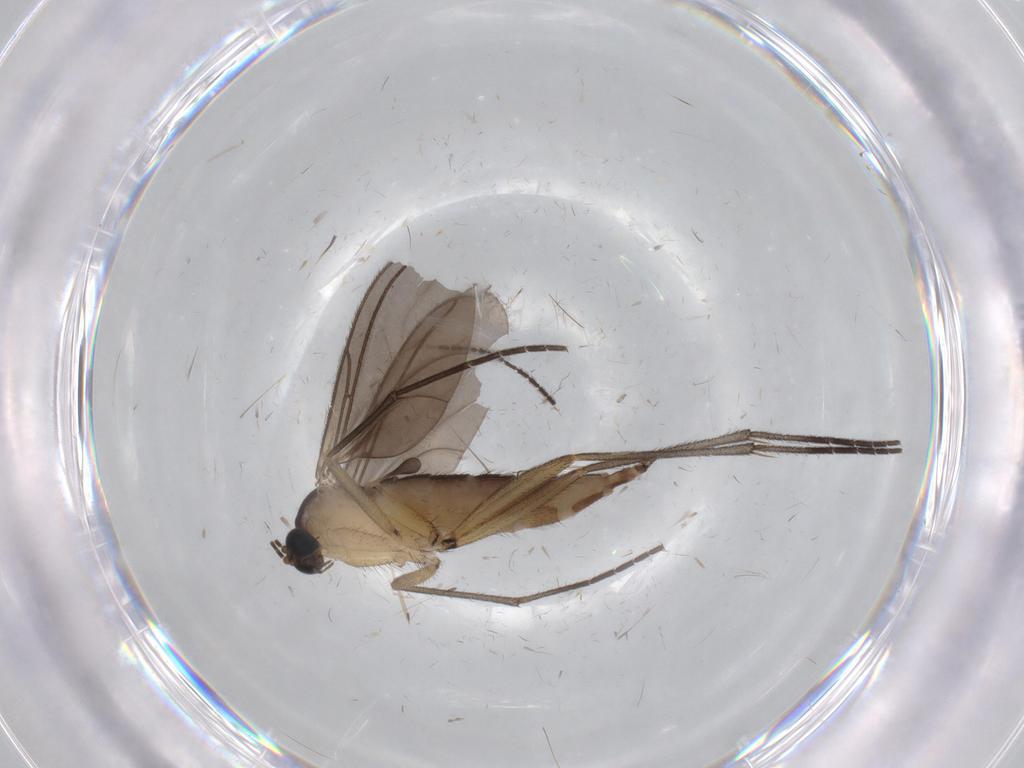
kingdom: Animalia
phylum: Arthropoda
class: Insecta
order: Diptera
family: Sciaridae
